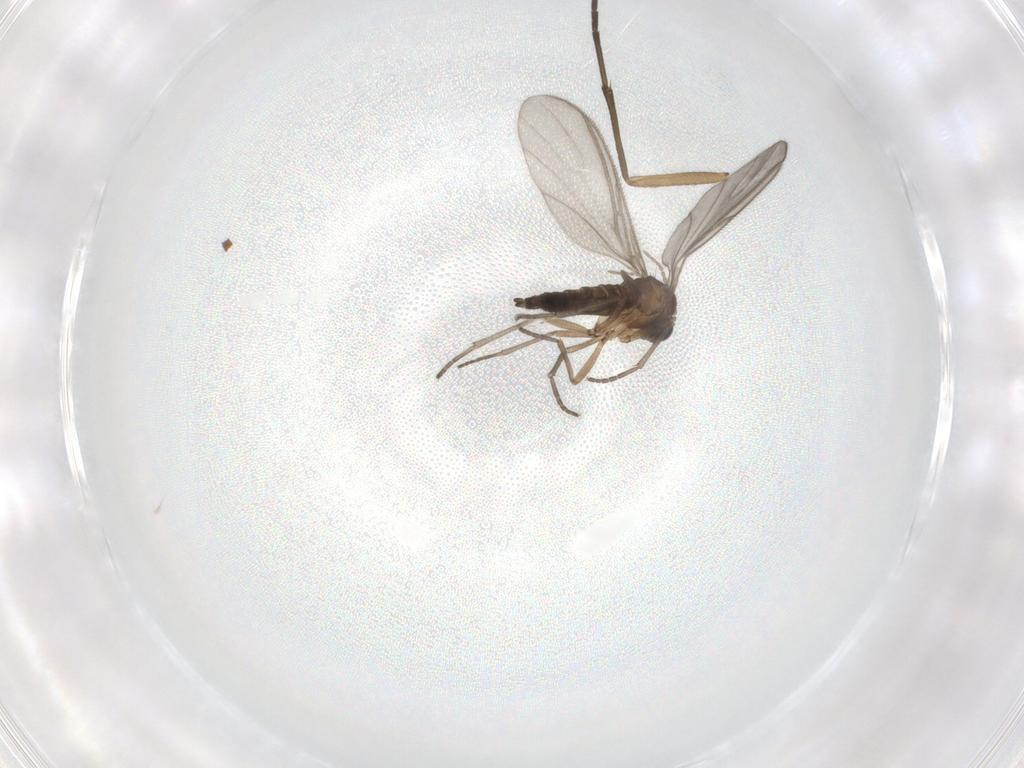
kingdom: Animalia
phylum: Arthropoda
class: Insecta
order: Diptera
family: Sciaridae
